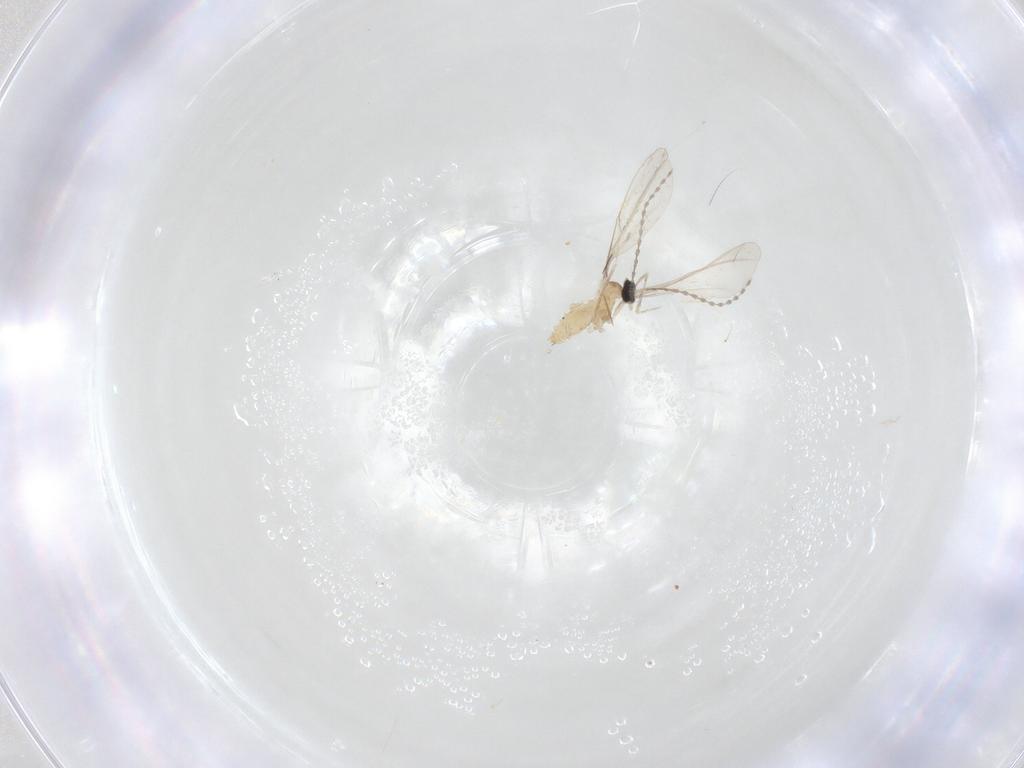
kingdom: Animalia
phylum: Arthropoda
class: Insecta
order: Diptera
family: Cecidomyiidae
